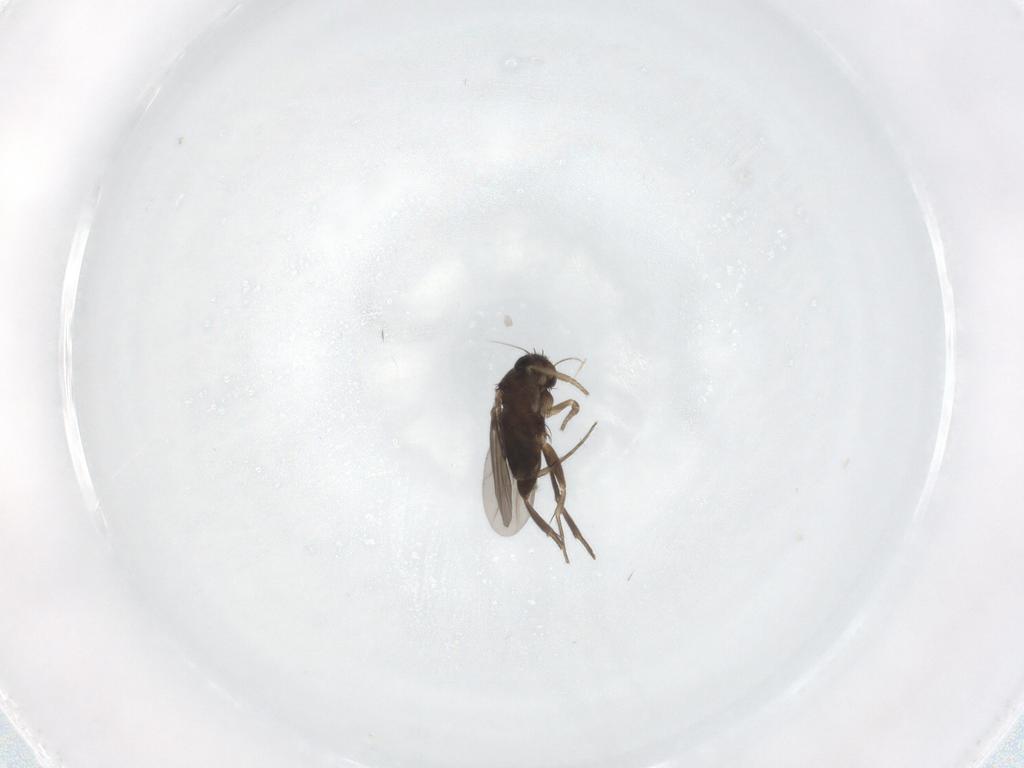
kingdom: Animalia
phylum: Arthropoda
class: Insecta
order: Diptera
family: Phoridae
